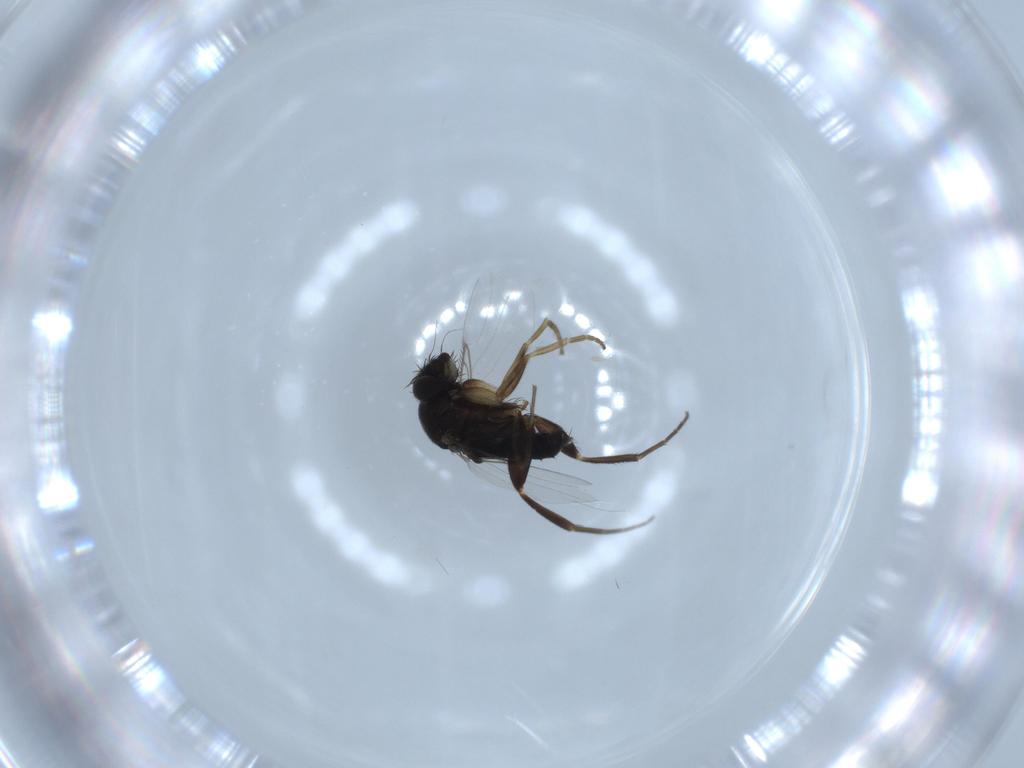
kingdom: Animalia
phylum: Arthropoda
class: Insecta
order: Diptera
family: Phoridae
